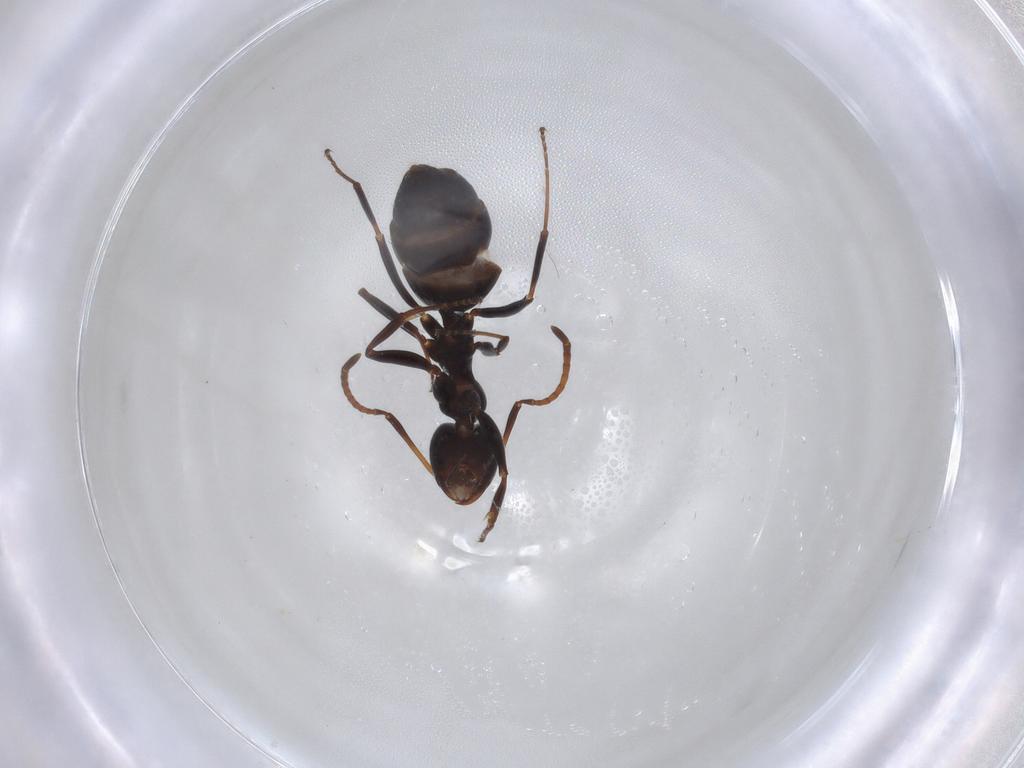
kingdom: Animalia
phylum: Arthropoda
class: Insecta
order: Hymenoptera
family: Formicidae
